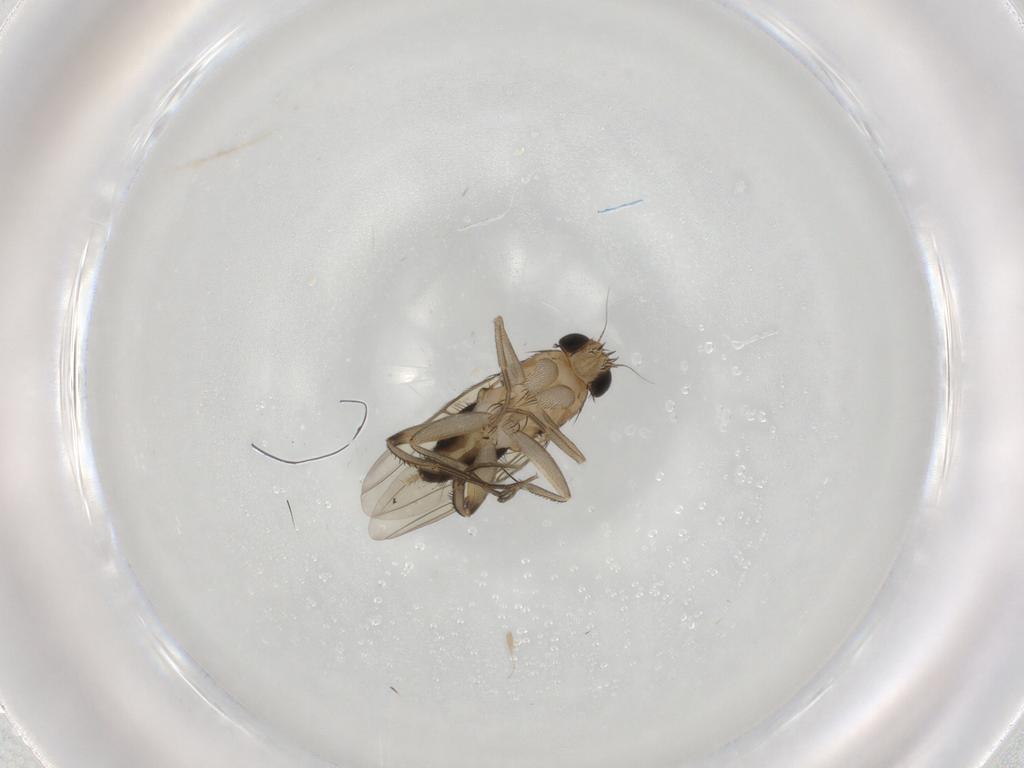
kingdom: Animalia
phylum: Arthropoda
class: Insecta
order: Diptera
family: Phoridae
